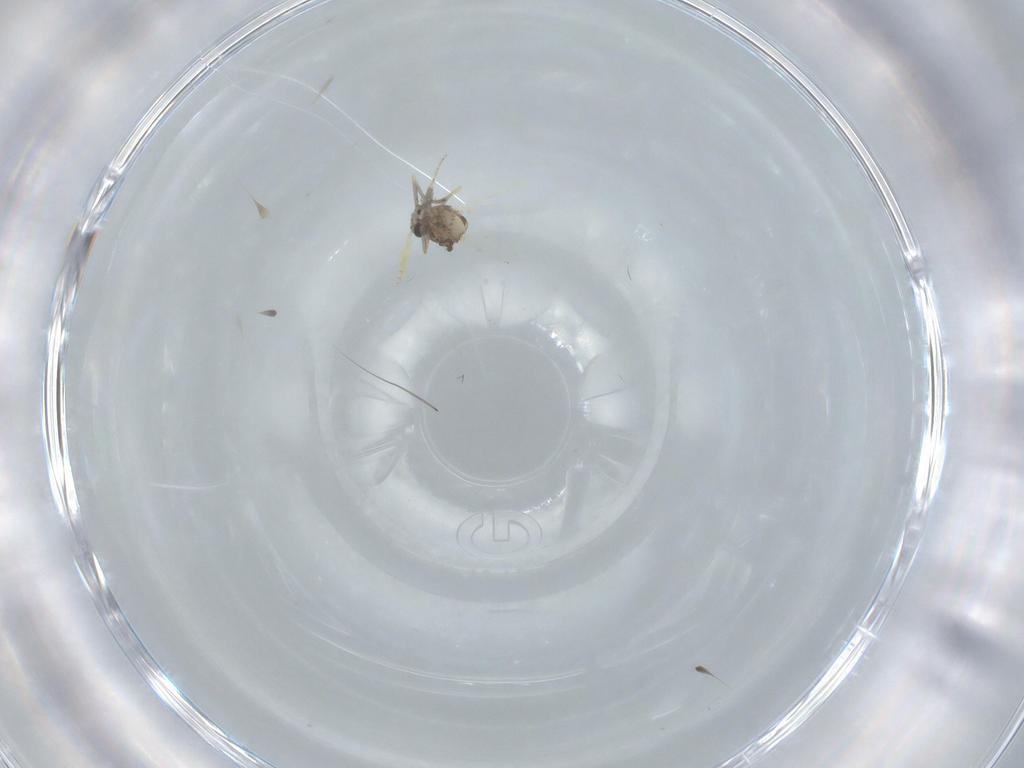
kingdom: Animalia
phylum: Arthropoda
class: Insecta
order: Diptera
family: Ceratopogonidae
